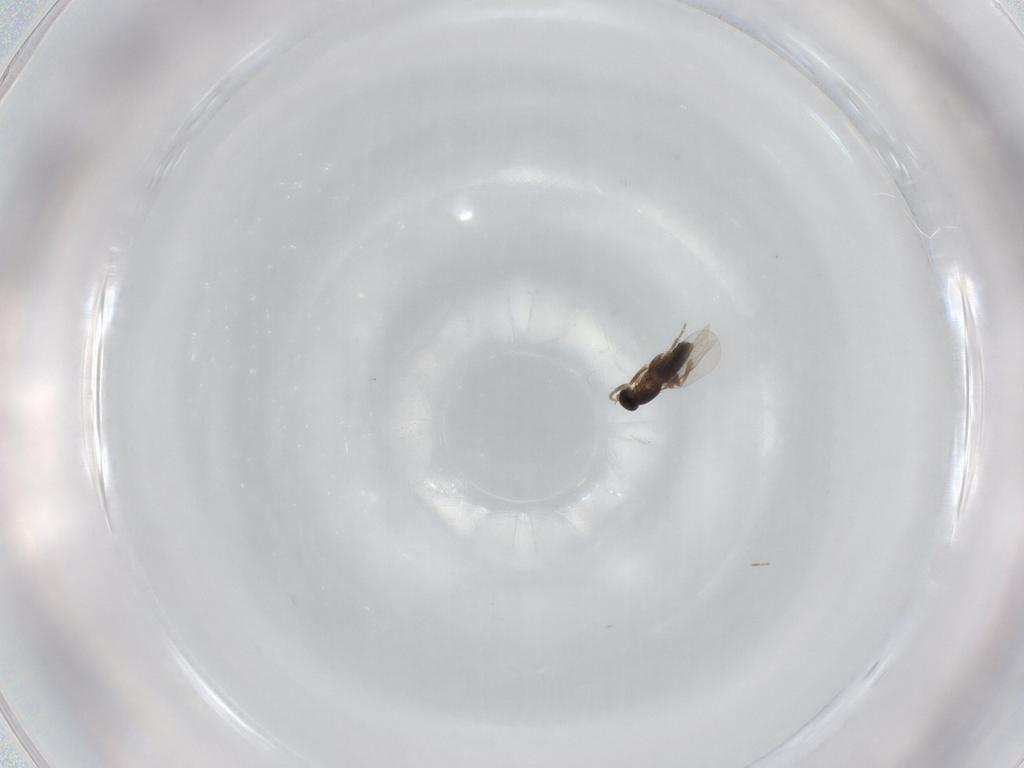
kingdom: Animalia
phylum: Arthropoda
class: Insecta
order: Diptera
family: Phoridae
